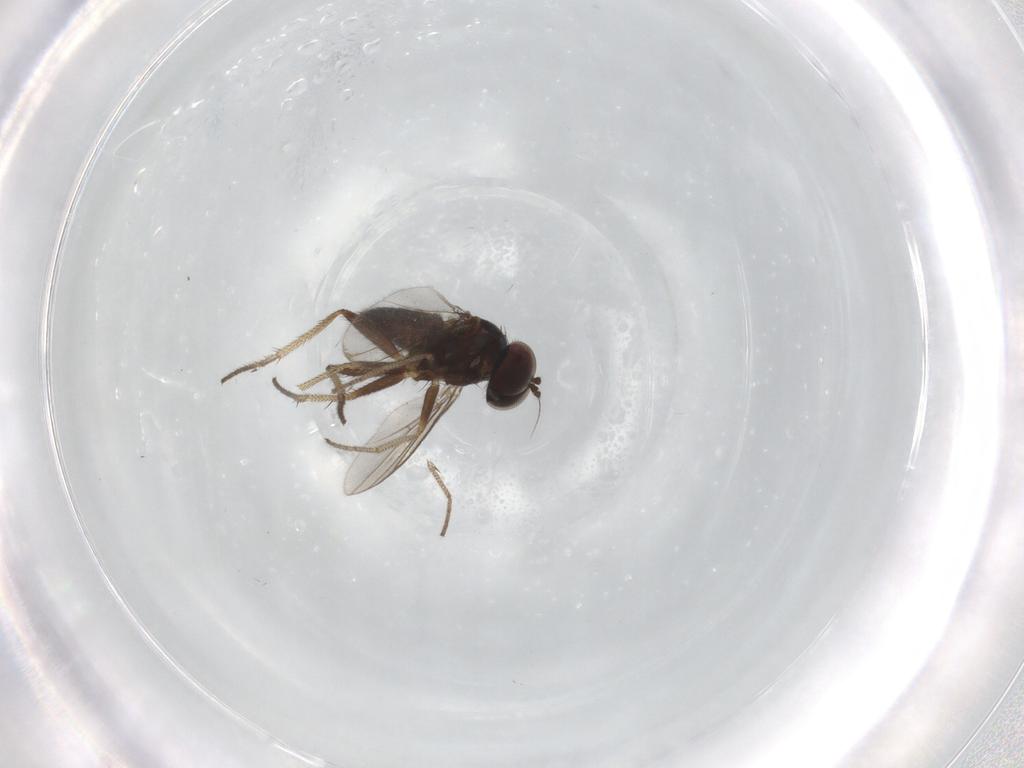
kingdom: Animalia
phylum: Arthropoda
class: Insecta
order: Diptera
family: Dolichopodidae
